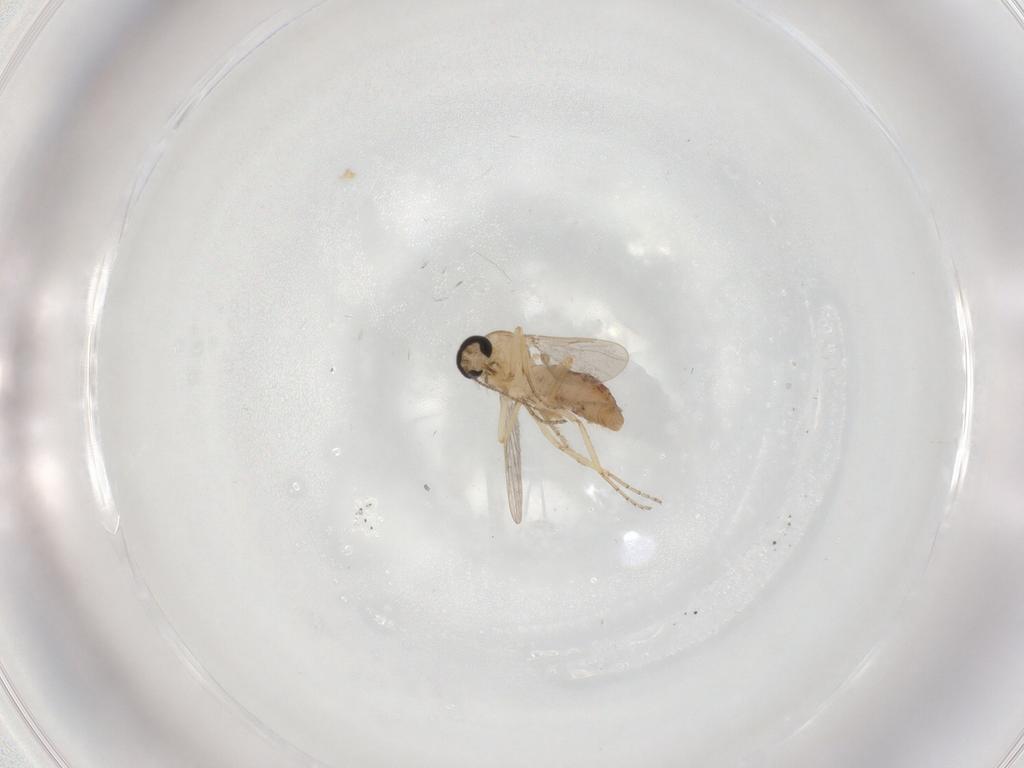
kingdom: Animalia
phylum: Arthropoda
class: Insecta
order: Diptera
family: Ceratopogonidae
